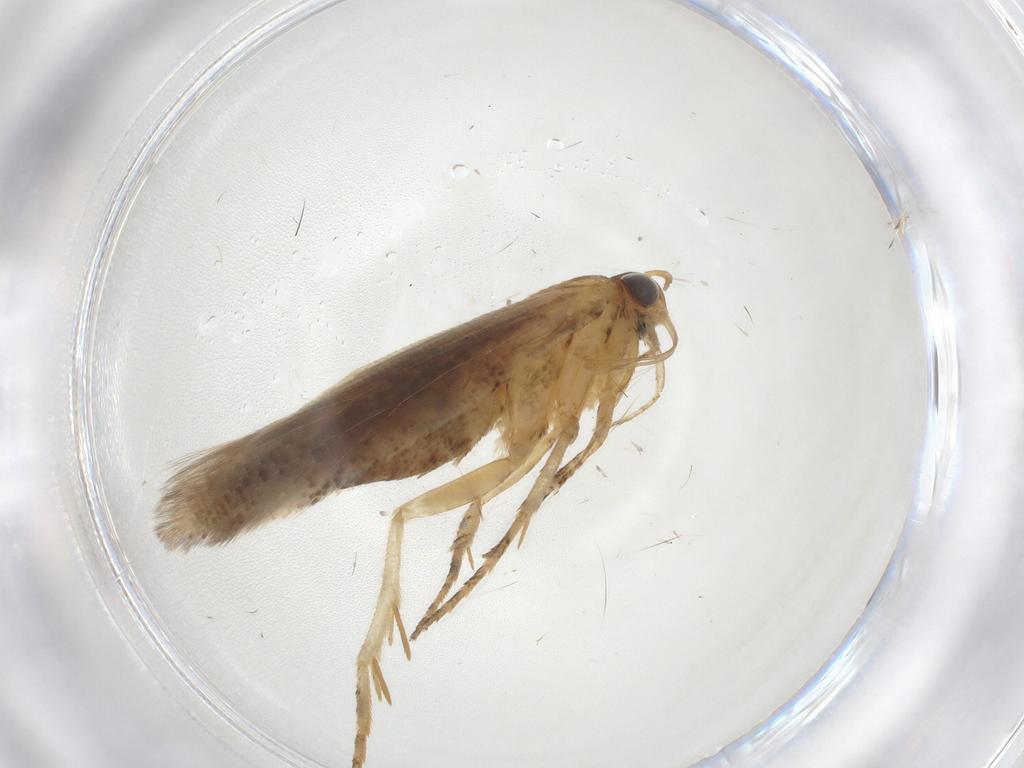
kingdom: Animalia
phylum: Arthropoda
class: Insecta
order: Lepidoptera
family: Gelechiidae
